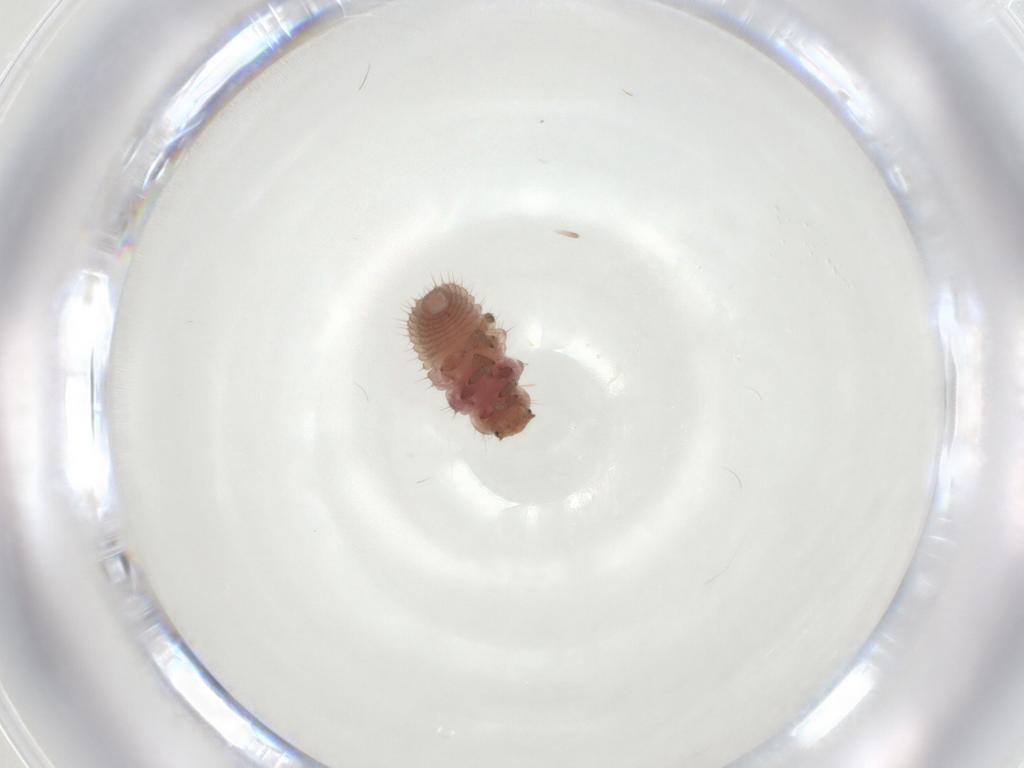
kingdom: Animalia
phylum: Arthropoda
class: Insecta
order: Coleoptera
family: Coccinellidae
